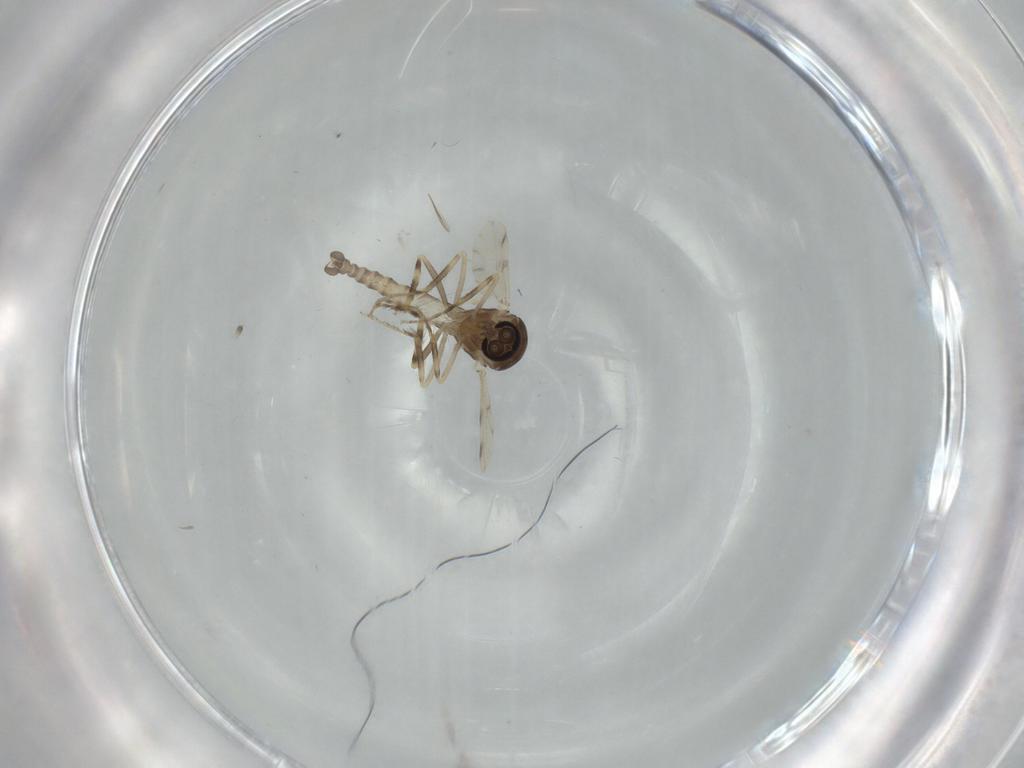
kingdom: Animalia
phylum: Arthropoda
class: Insecta
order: Diptera
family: Ceratopogonidae
